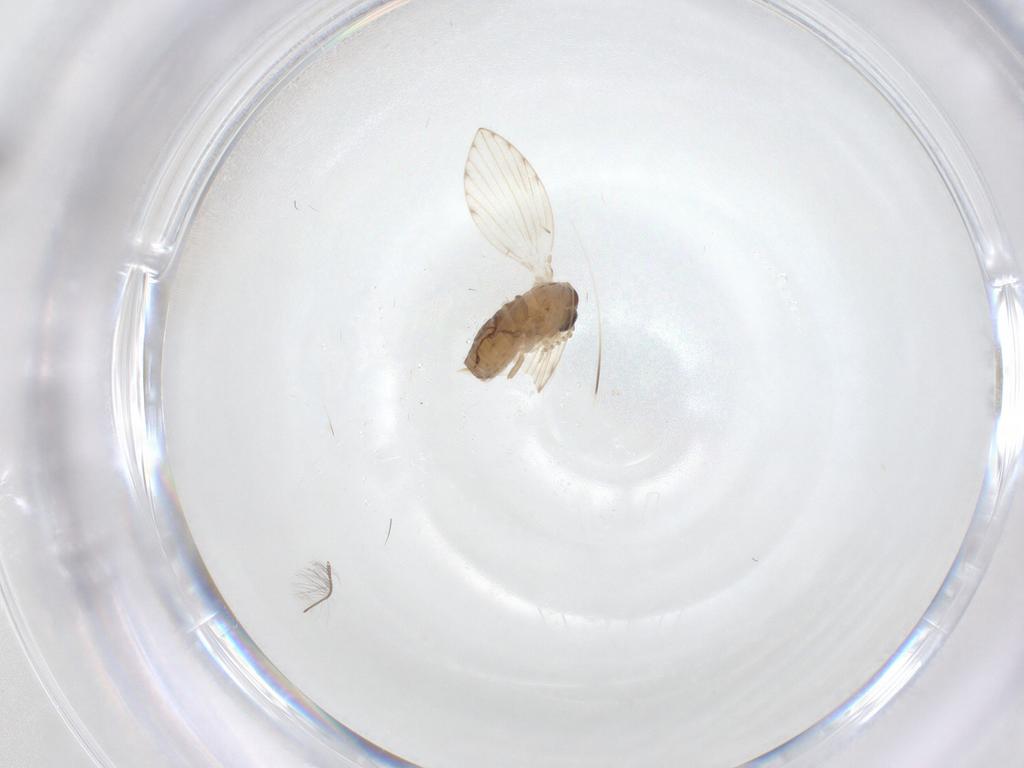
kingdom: Animalia
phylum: Arthropoda
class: Insecta
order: Diptera
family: Psychodidae
